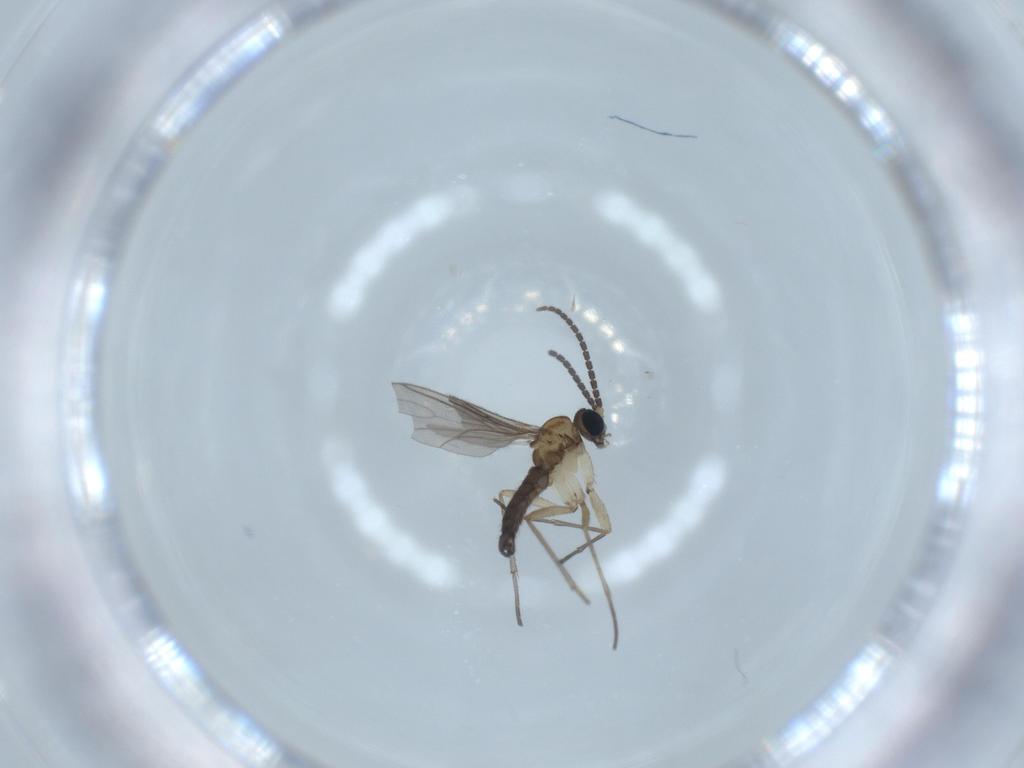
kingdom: Animalia
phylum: Arthropoda
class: Insecta
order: Diptera
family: Sciaridae
